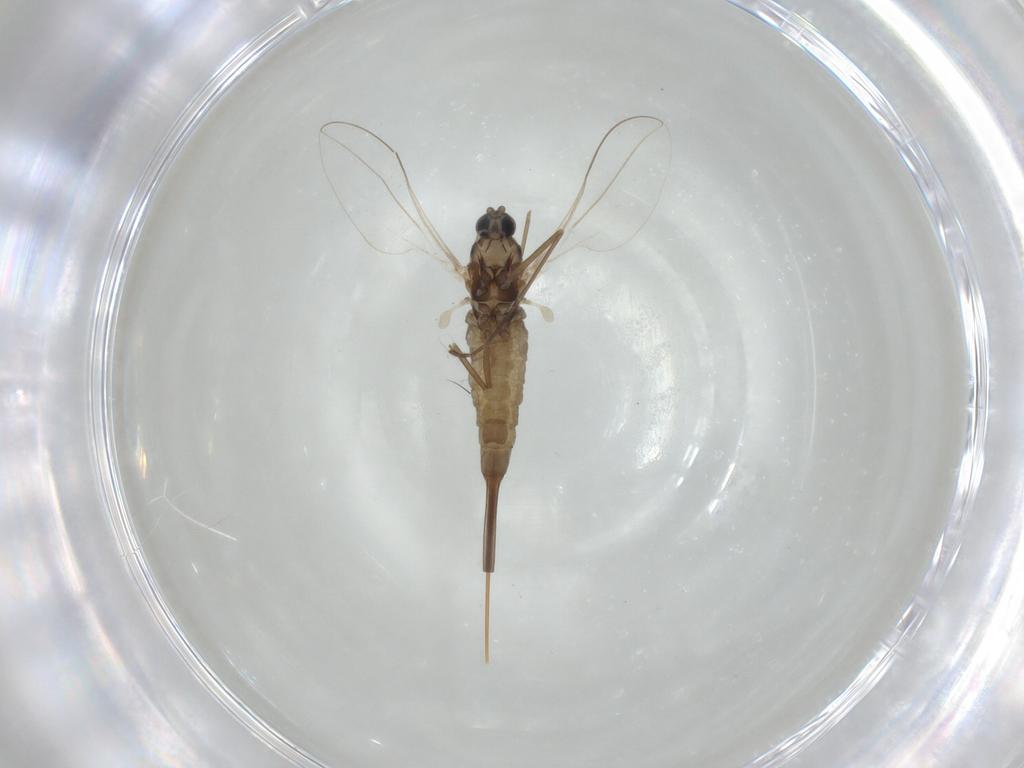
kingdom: Animalia
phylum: Arthropoda
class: Insecta
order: Diptera
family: Cecidomyiidae
